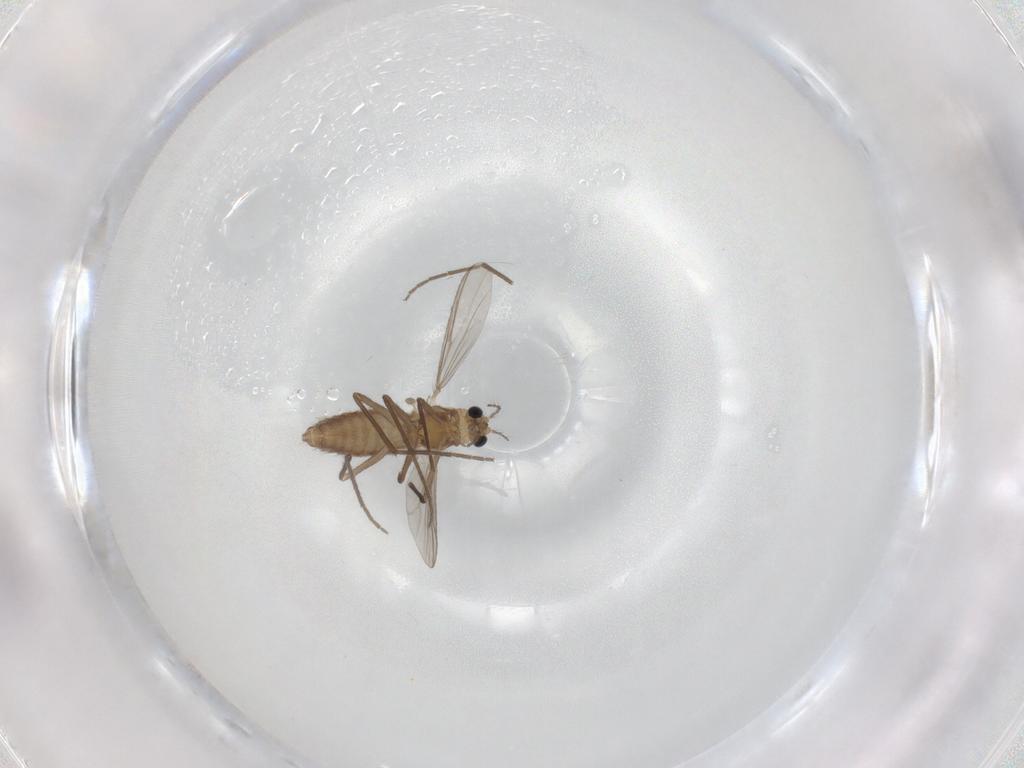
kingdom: Animalia
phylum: Arthropoda
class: Insecta
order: Diptera
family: Chironomidae
